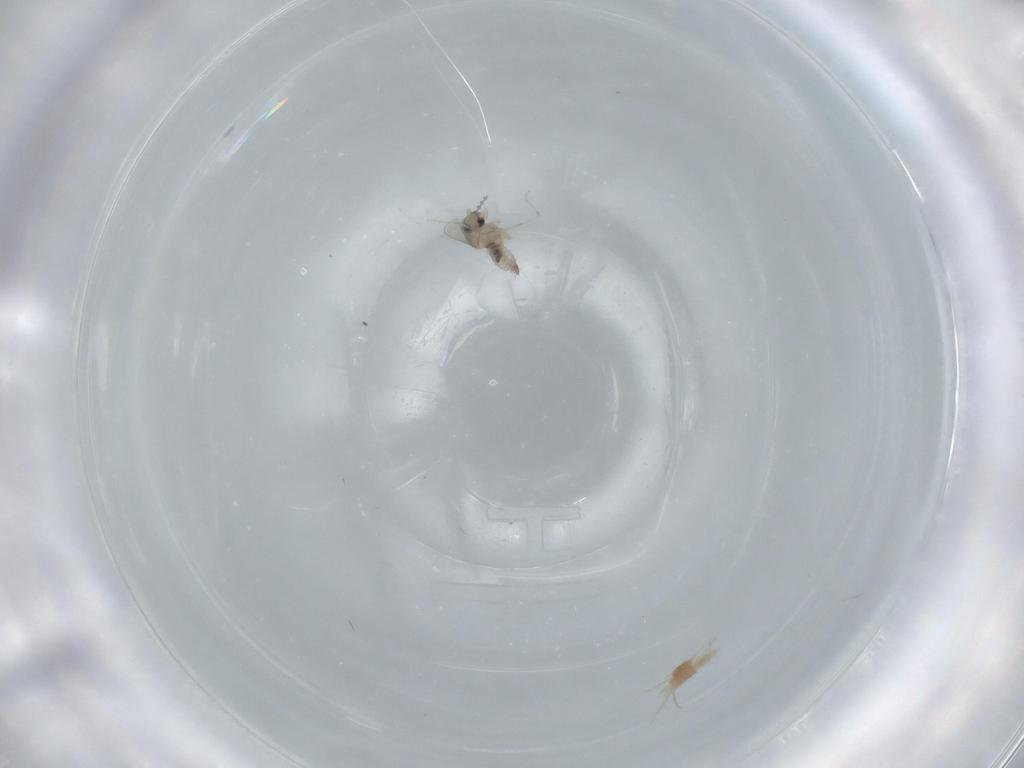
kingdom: Animalia
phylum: Arthropoda
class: Insecta
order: Diptera
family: Cecidomyiidae
